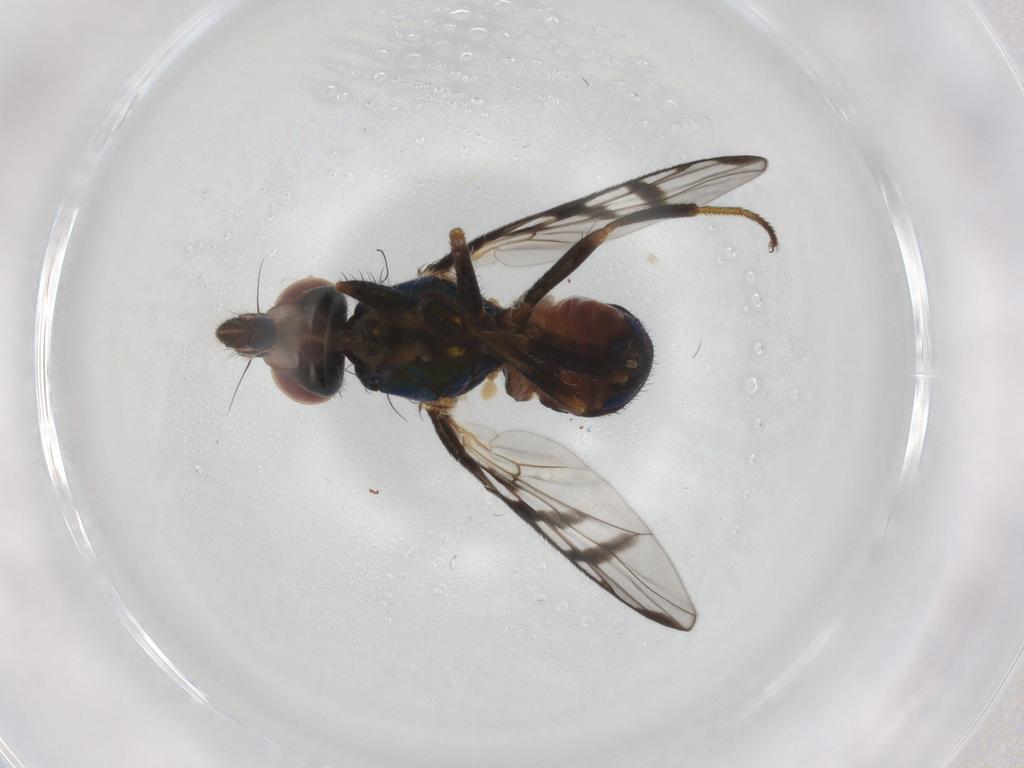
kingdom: Animalia
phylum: Arthropoda
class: Insecta
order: Diptera
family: Platystomatidae
